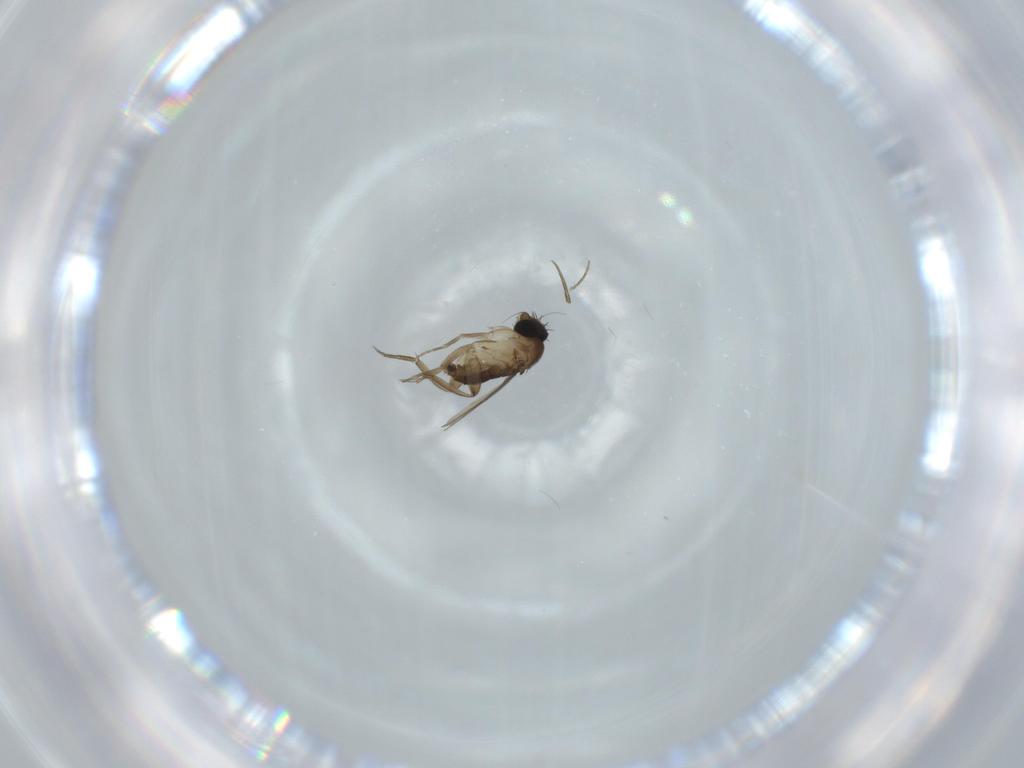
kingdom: Animalia
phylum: Arthropoda
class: Insecta
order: Diptera
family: Phoridae
